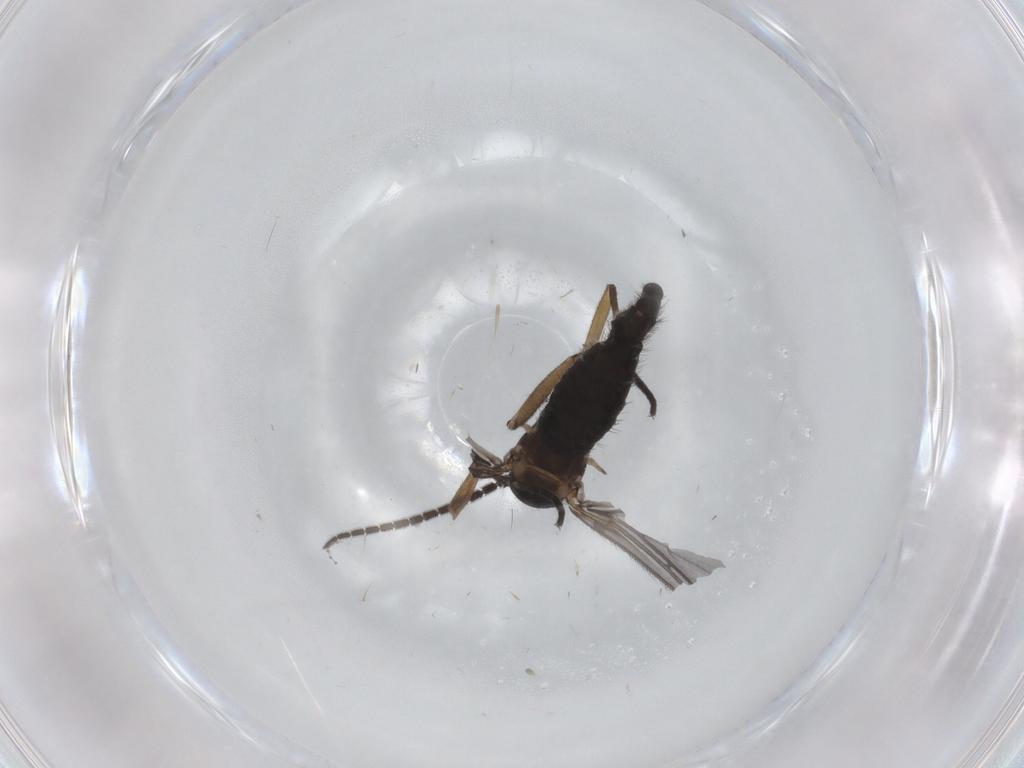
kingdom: Animalia
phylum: Arthropoda
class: Insecta
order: Diptera
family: Sciaridae
